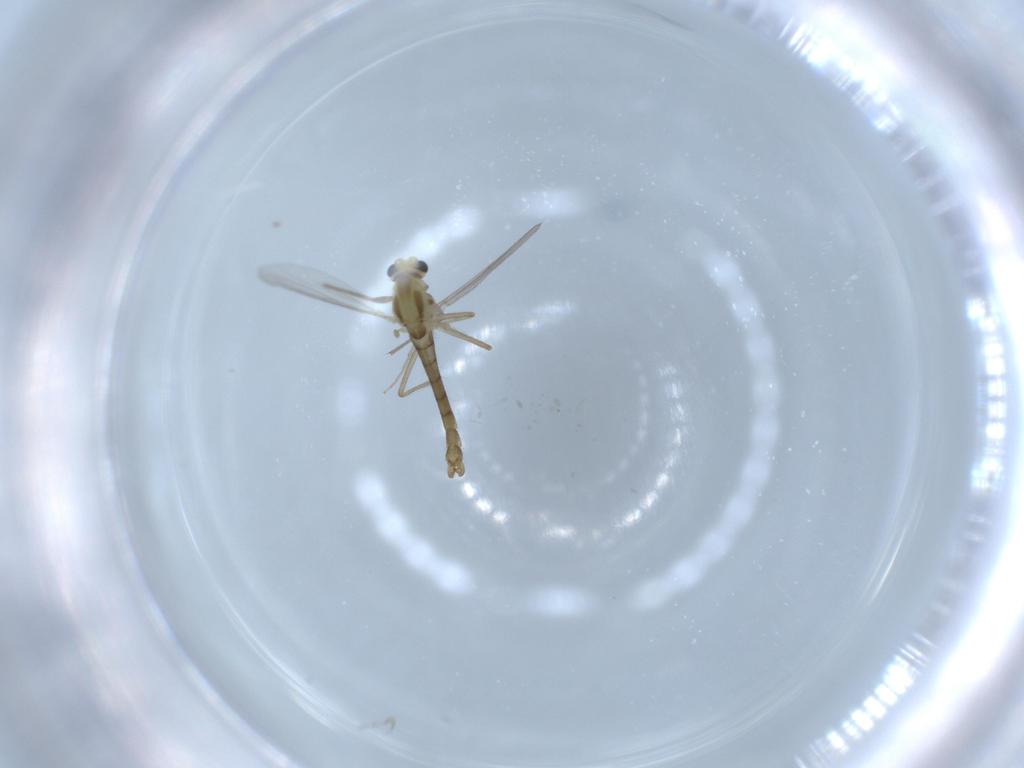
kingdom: Animalia
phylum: Arthropoda
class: Insecta
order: Diptera
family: Chironomidae
